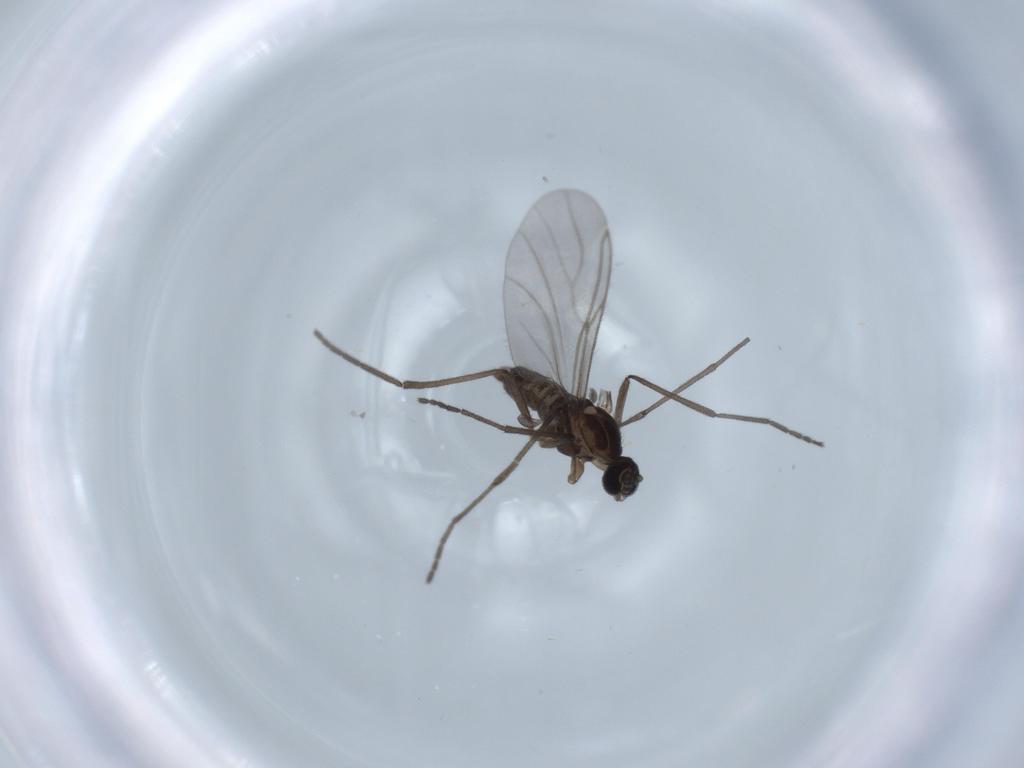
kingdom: Animalia
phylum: Arthropoda
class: Insecta
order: Diptera
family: Cecidomyiidae
